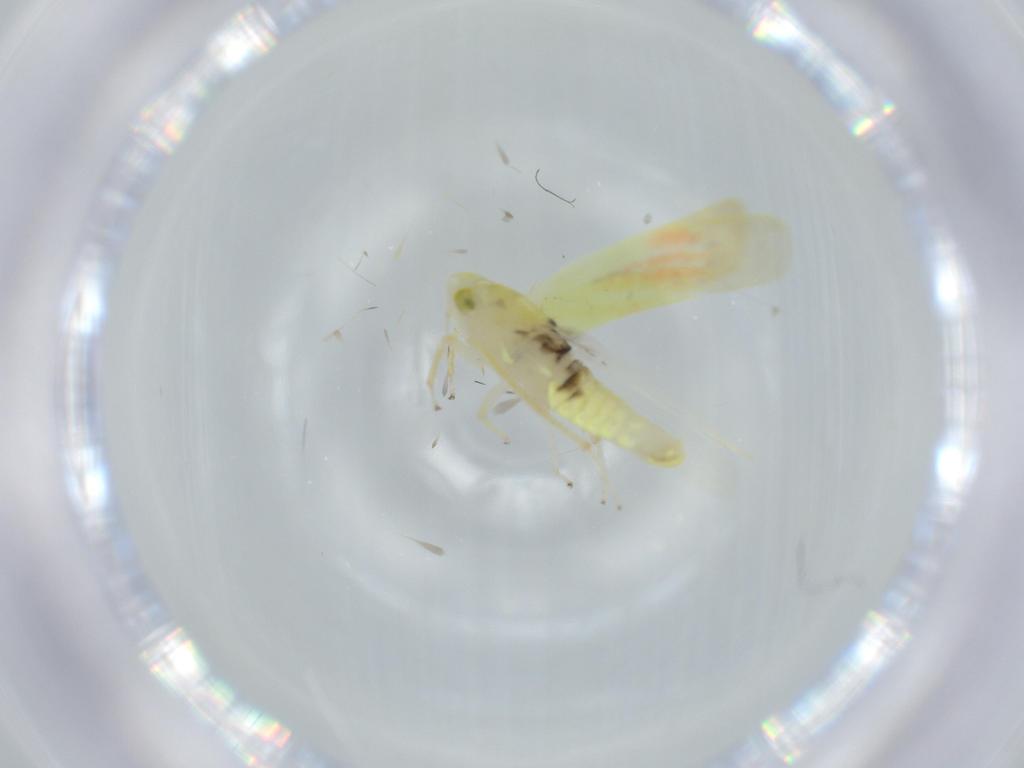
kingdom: Animalia
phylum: Arthropoda
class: Insecta
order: Hemiptera
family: Cicadellidae
